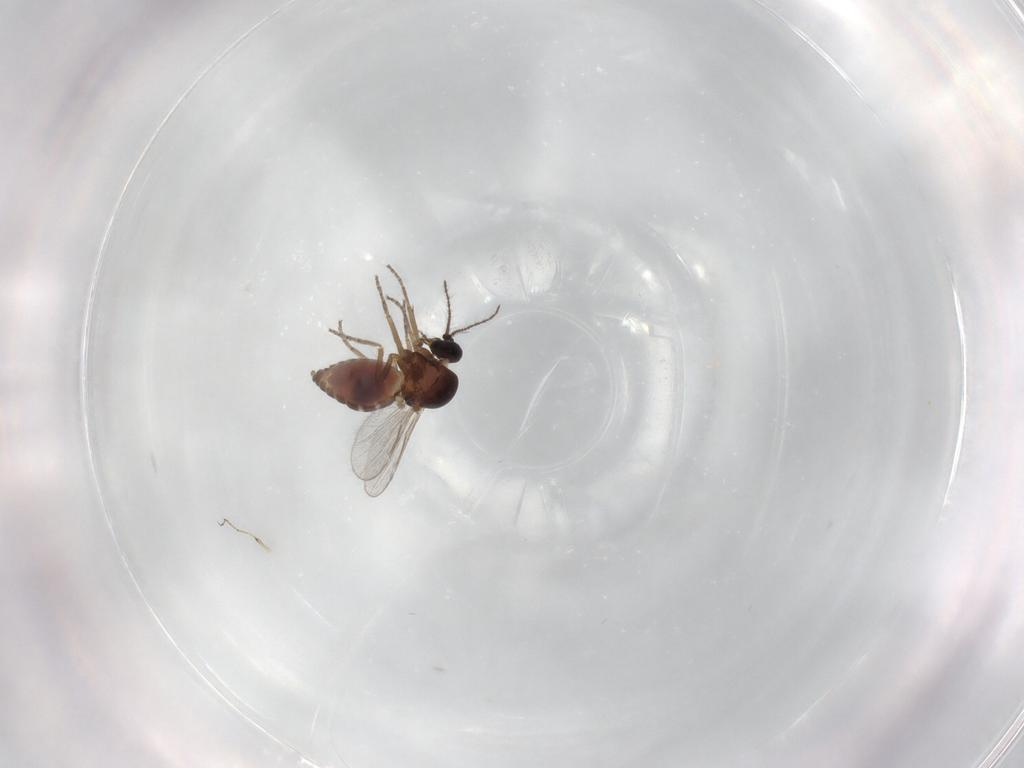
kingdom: Animalia
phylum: Arthropoda
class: Insecta
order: Diptera
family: Ceratopogonidae
